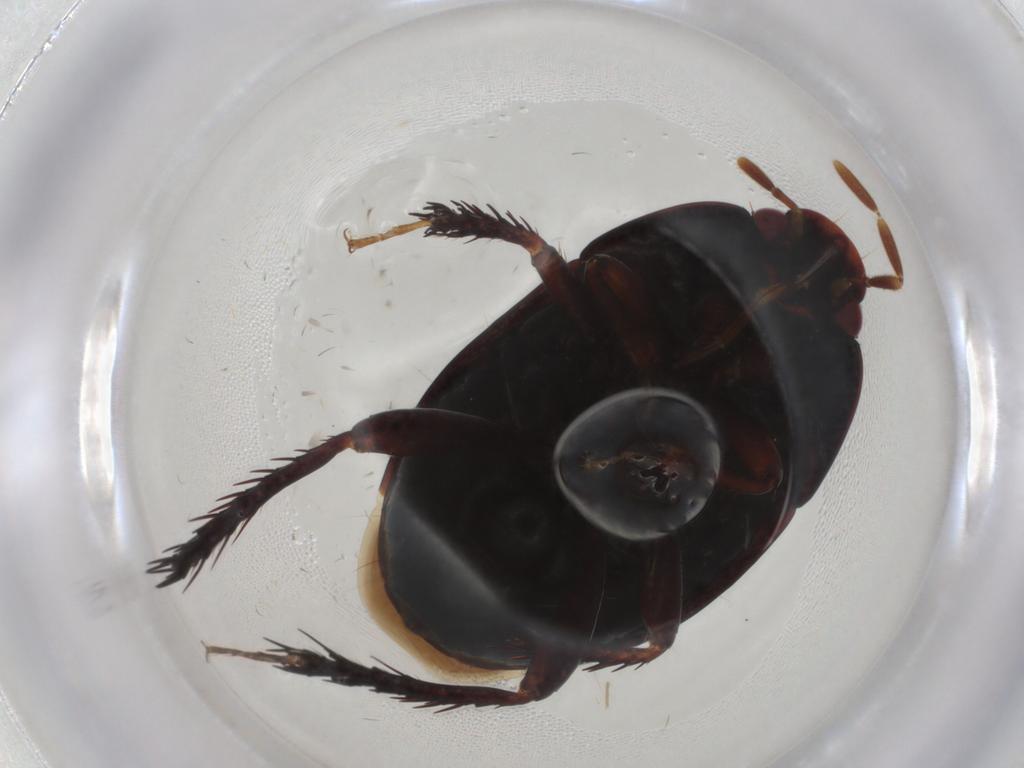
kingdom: Animalia
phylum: Arthropoda
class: Insecta
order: Hemiptera
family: Cydnidae
